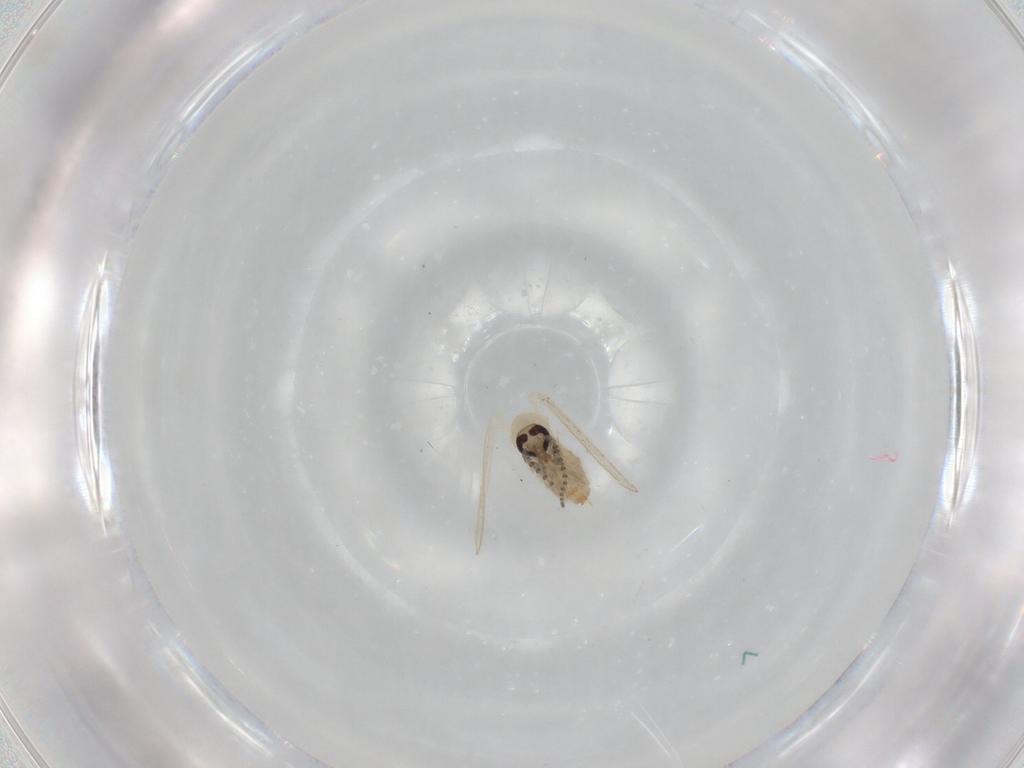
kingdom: Animalia
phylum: Arthropoda
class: Insecta
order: Diptera
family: Psychodidae
